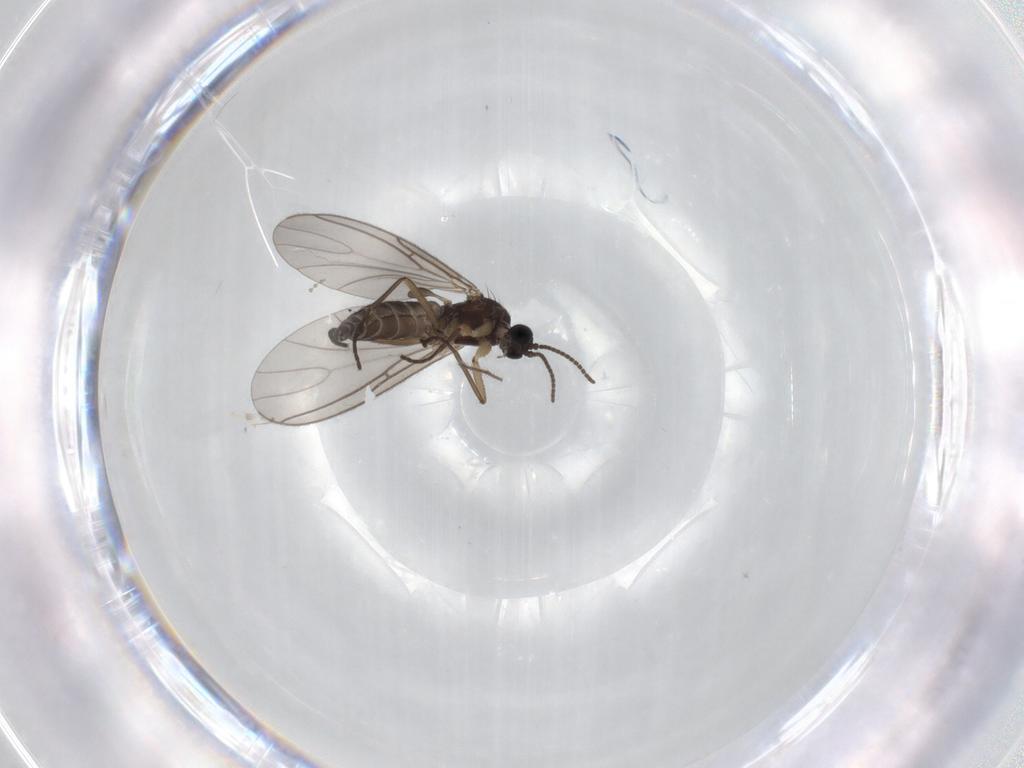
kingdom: Animalia
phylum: Arthropoda
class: Insecta
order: Diptera
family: Sciaridae
